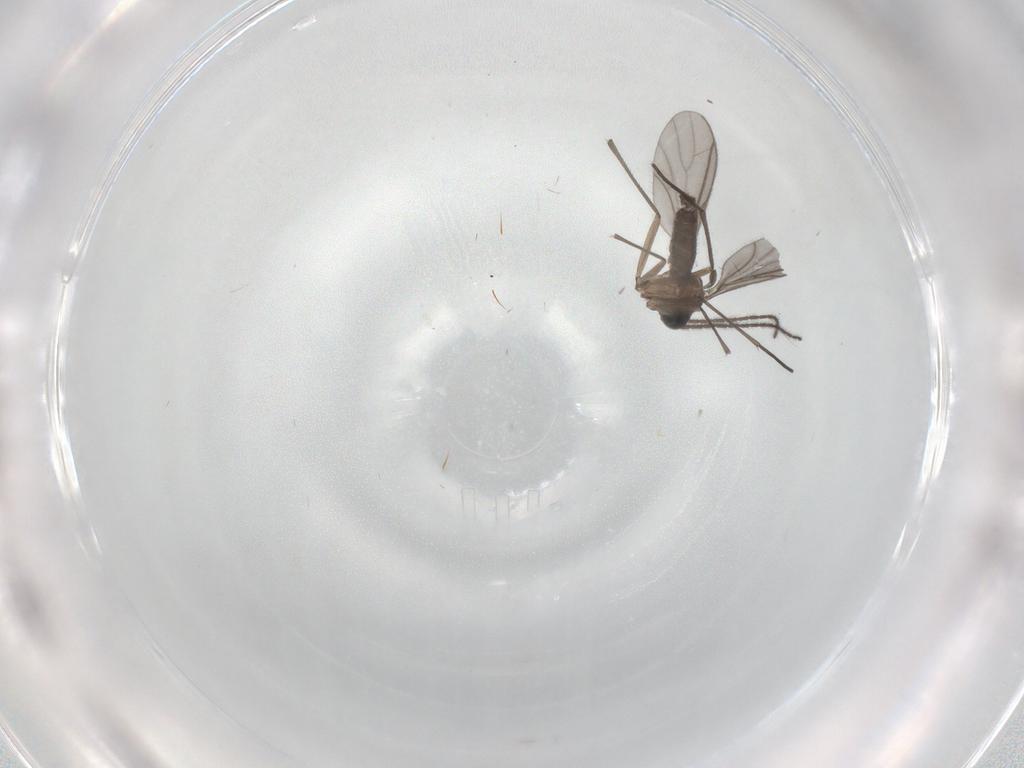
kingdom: Animalia
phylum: Arthropoda
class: Insecta
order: Diptera
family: Sciaridae
